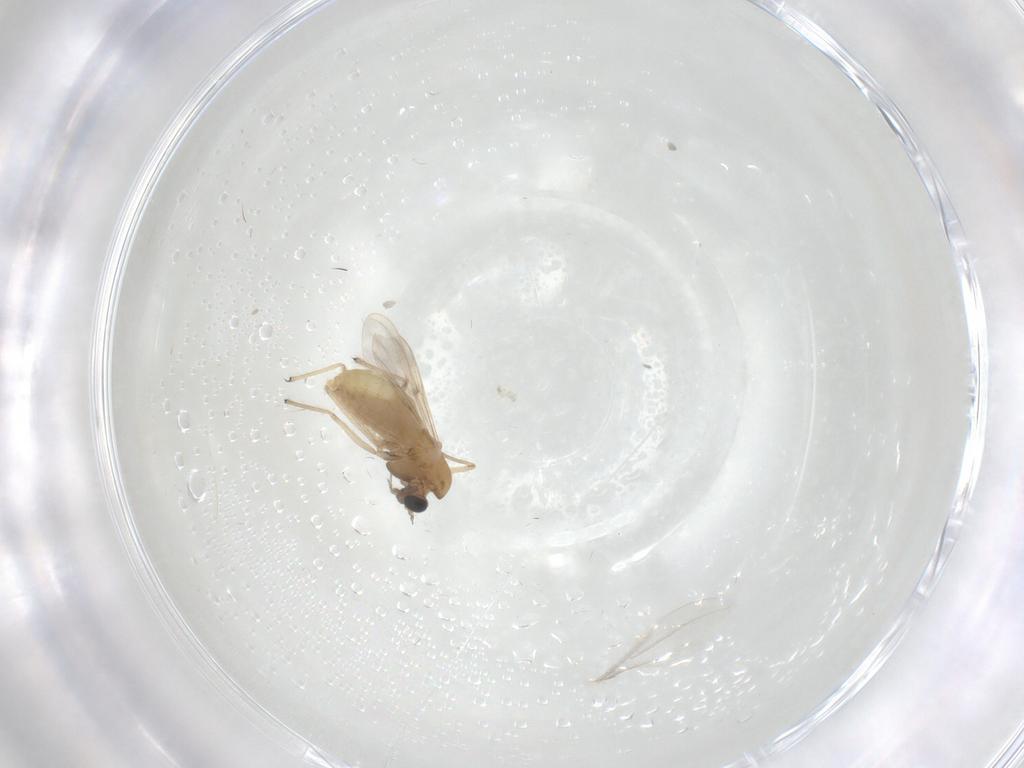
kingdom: Animalia
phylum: Arthropoda
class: Insecta
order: Diptera
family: Chironomidae
